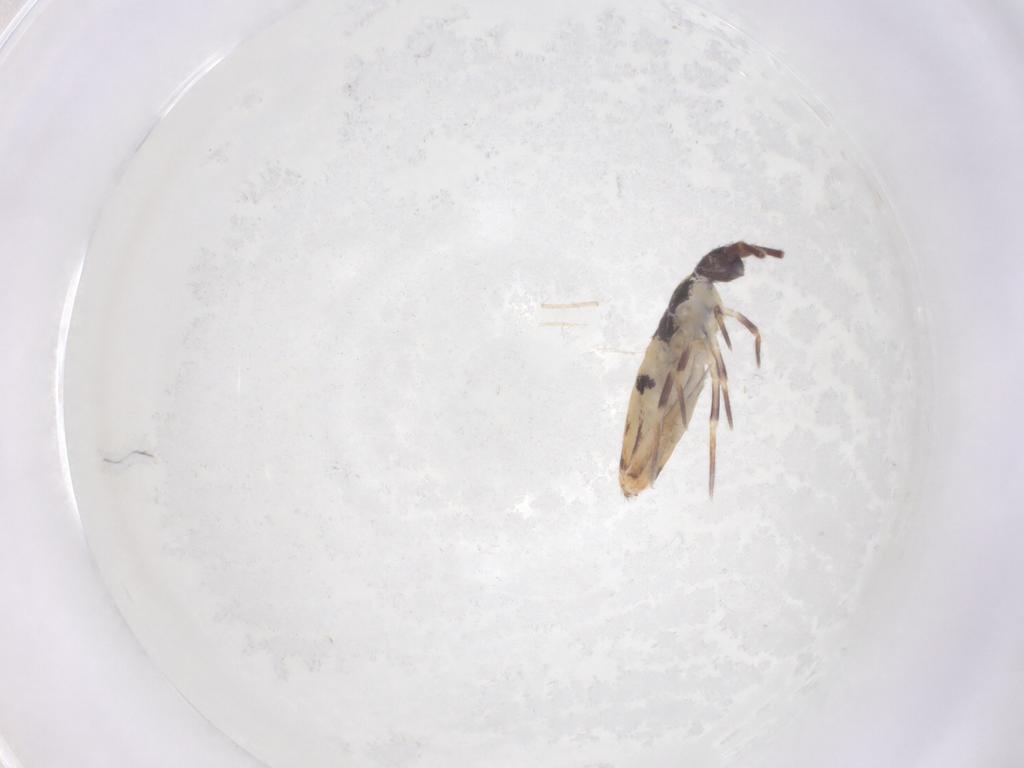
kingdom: Animalia
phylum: Arthropoda
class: Collembola
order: Entomobryomorpha
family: Entomobryidae
